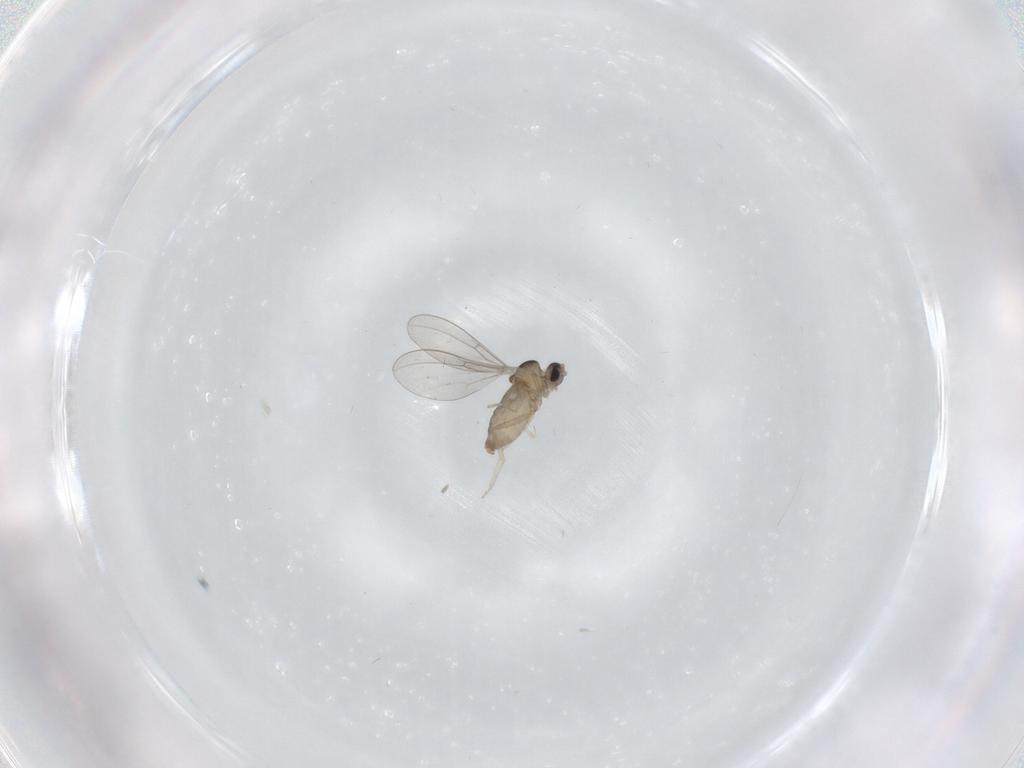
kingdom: Animalia
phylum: Arthropoda
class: Insecta
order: Diptera
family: Cecidomyiidae
